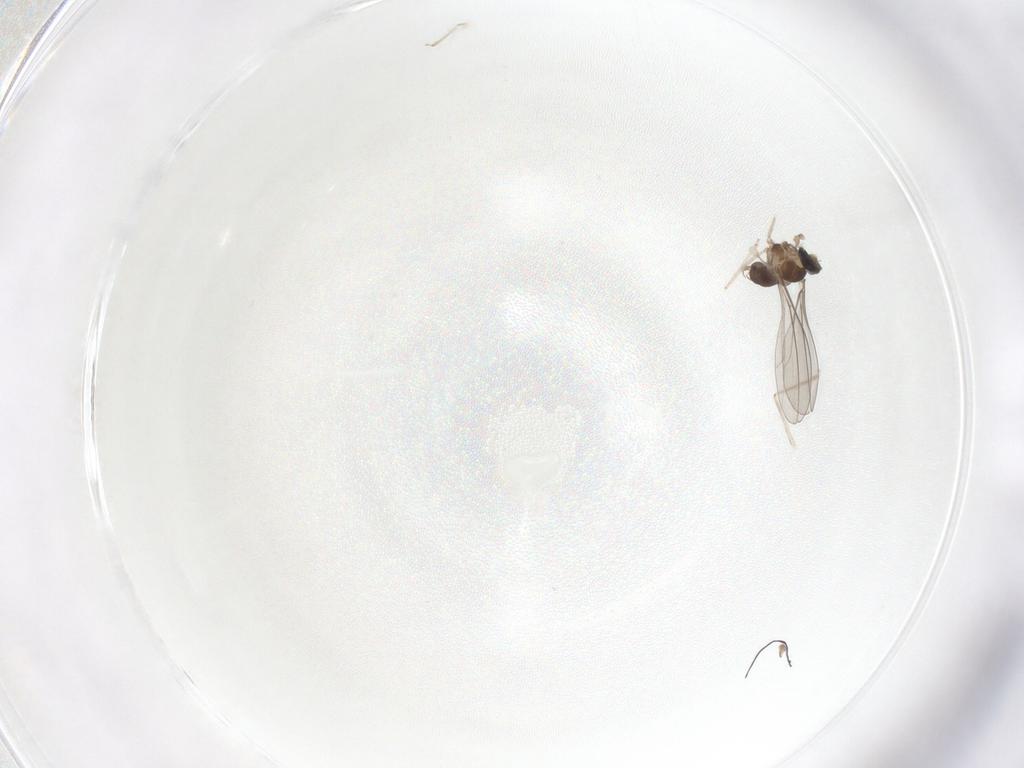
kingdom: Animalia
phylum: Arthropoda
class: Insecta
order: Diptera
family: Cecidomyiidae
